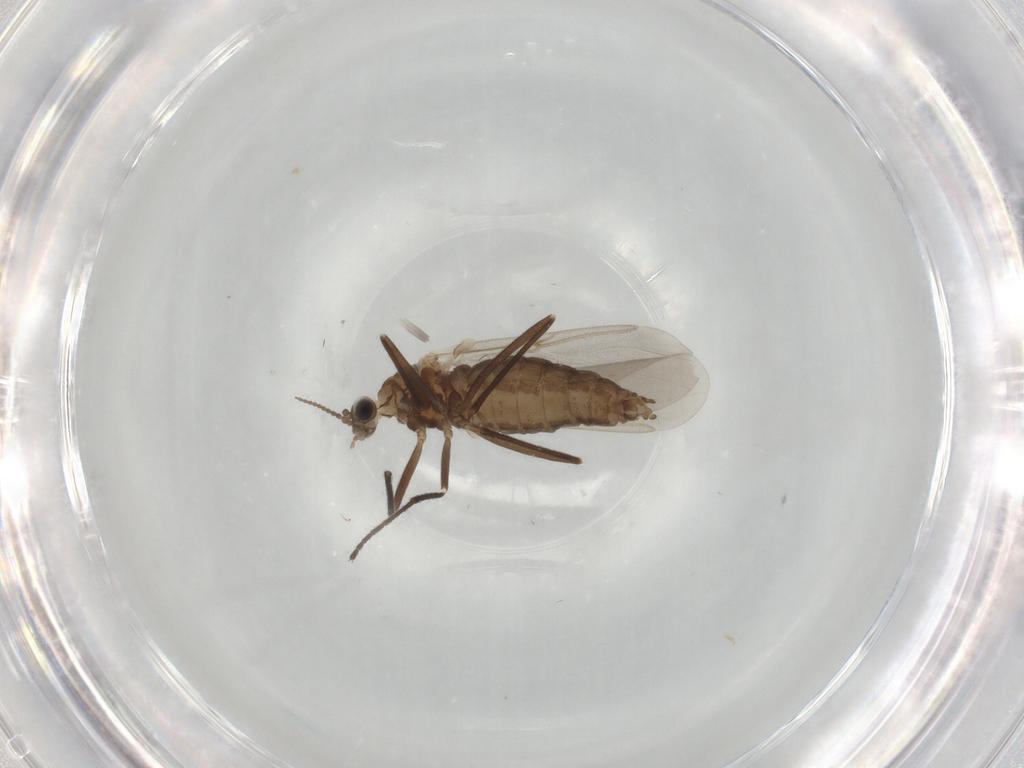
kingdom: Animalia
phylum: Arthropoda
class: Insecta
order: Diptera
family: Cecidomyiidae
